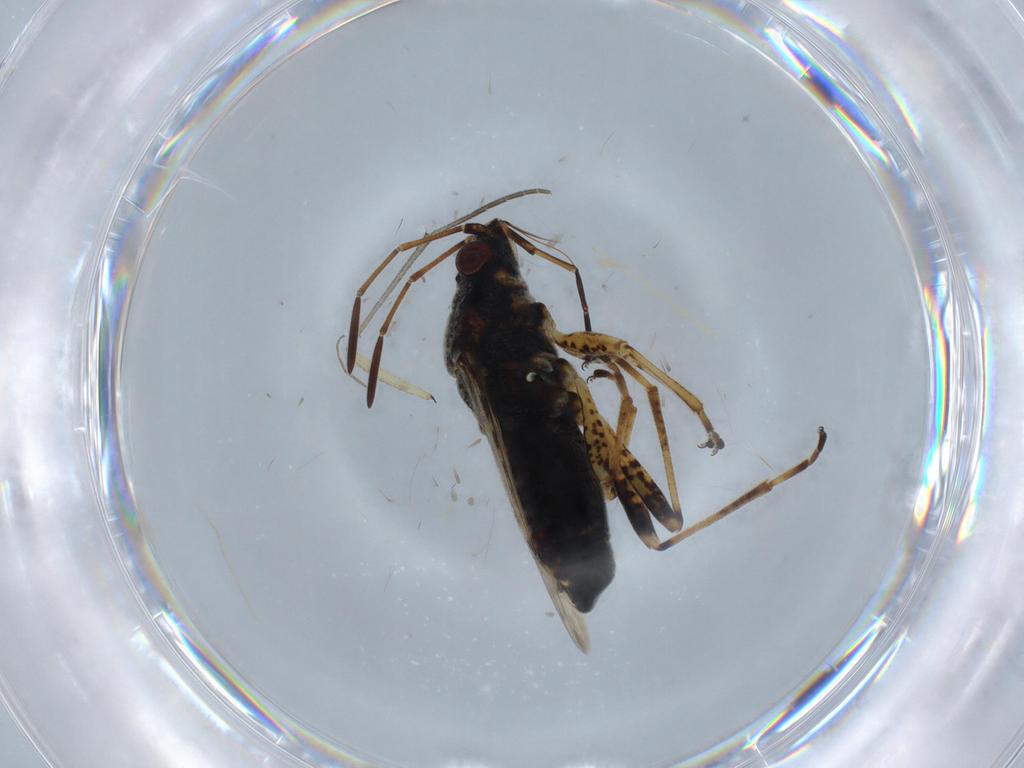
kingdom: Animalia
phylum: Arthropoda
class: Insecta
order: Hemiptera
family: Lygaeidae
